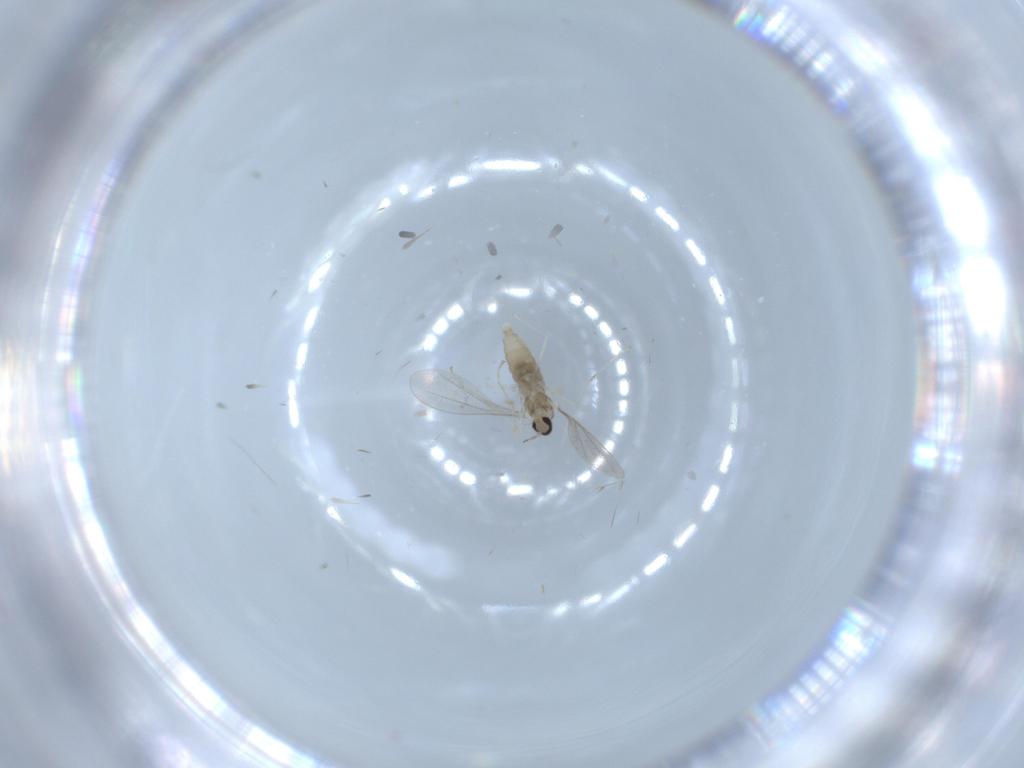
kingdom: Animalia
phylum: Arthropoda
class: Insecta
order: Diptera
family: Cecidomyiidae
